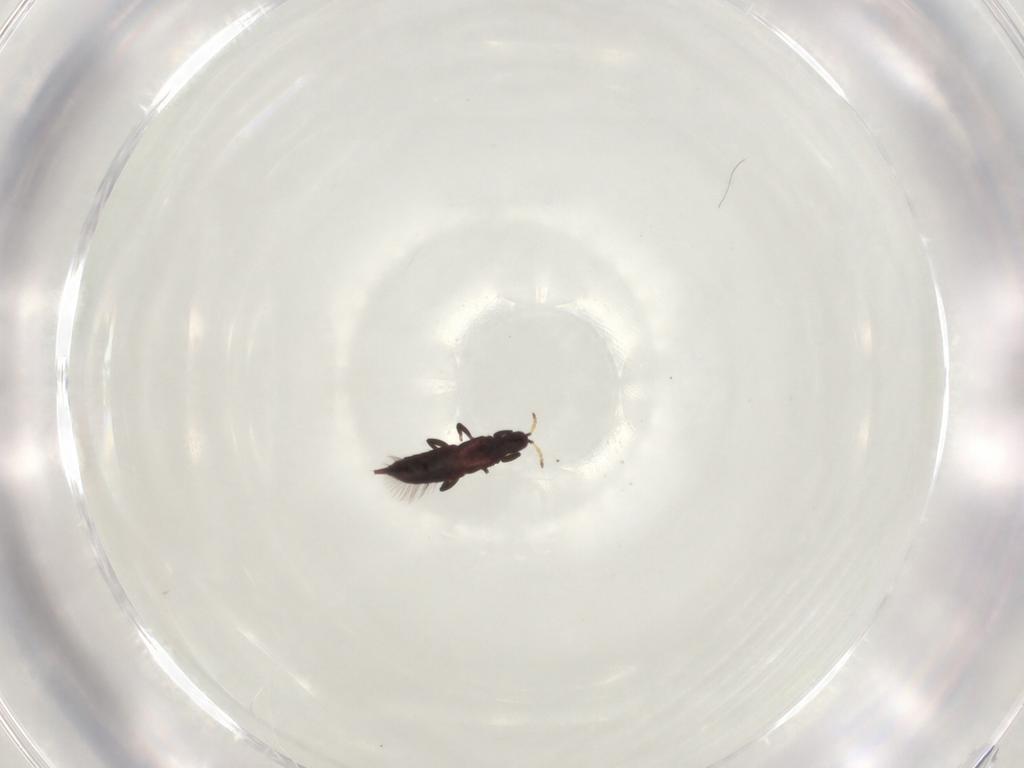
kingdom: Animalia
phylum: Arthropoda
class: Insecta
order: Thysanoptera
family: Phlaeothripidae
